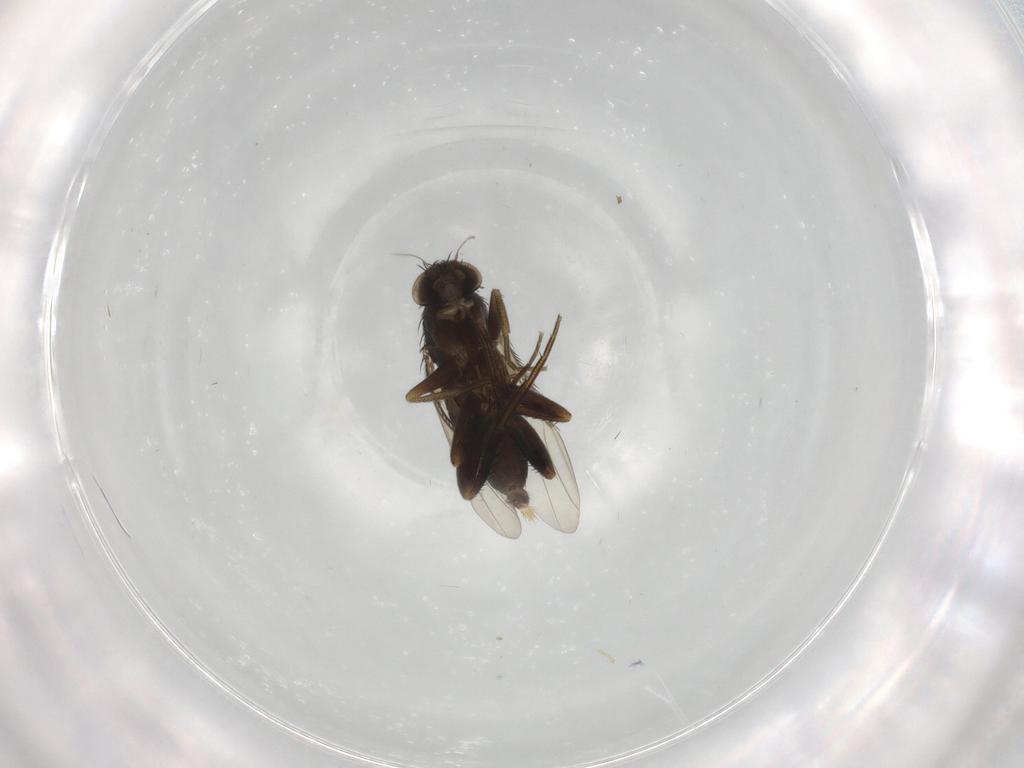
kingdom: Animalia
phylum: Arthropoda
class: Insecta
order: Diptera
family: Phoridae
